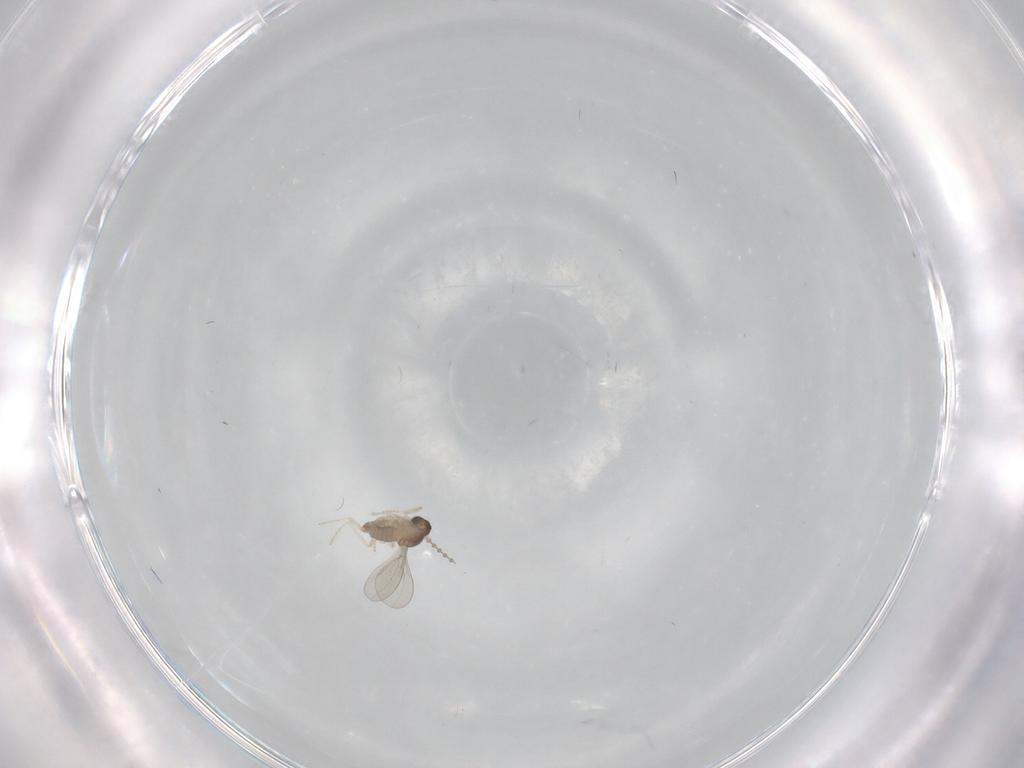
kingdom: Animalia
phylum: Arthropoda
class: Insecta
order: Diptera
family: Cecidomyiidae
